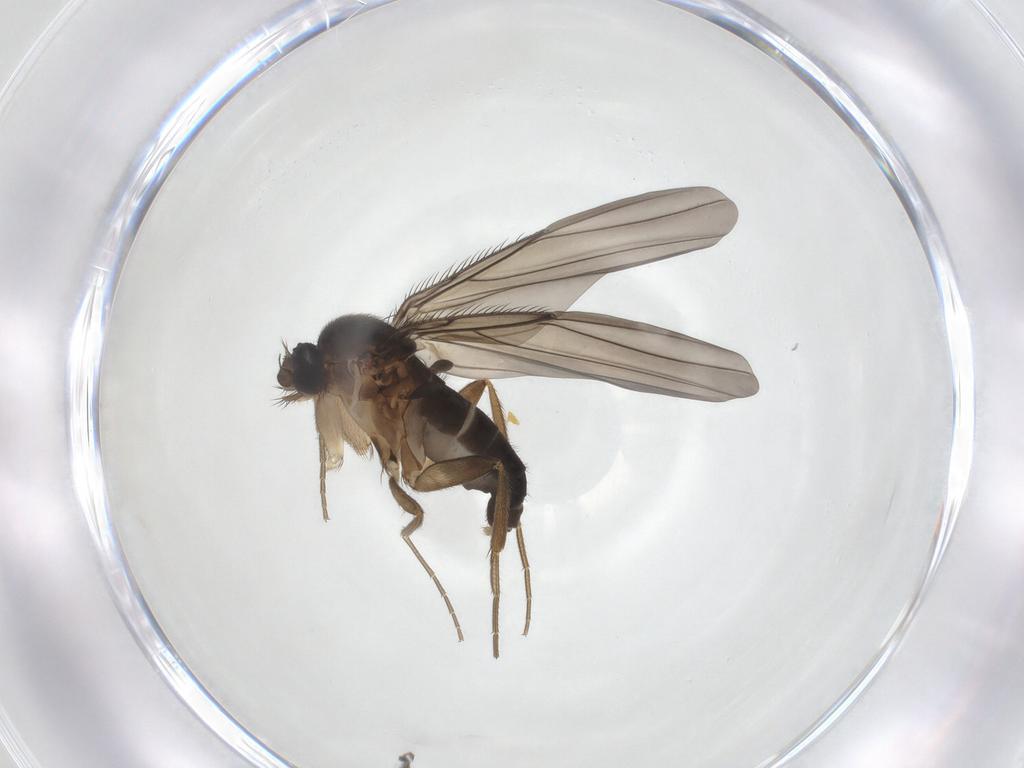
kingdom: Animalia
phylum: Arthropoda
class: Insecta
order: Diptera
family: Phoridae
